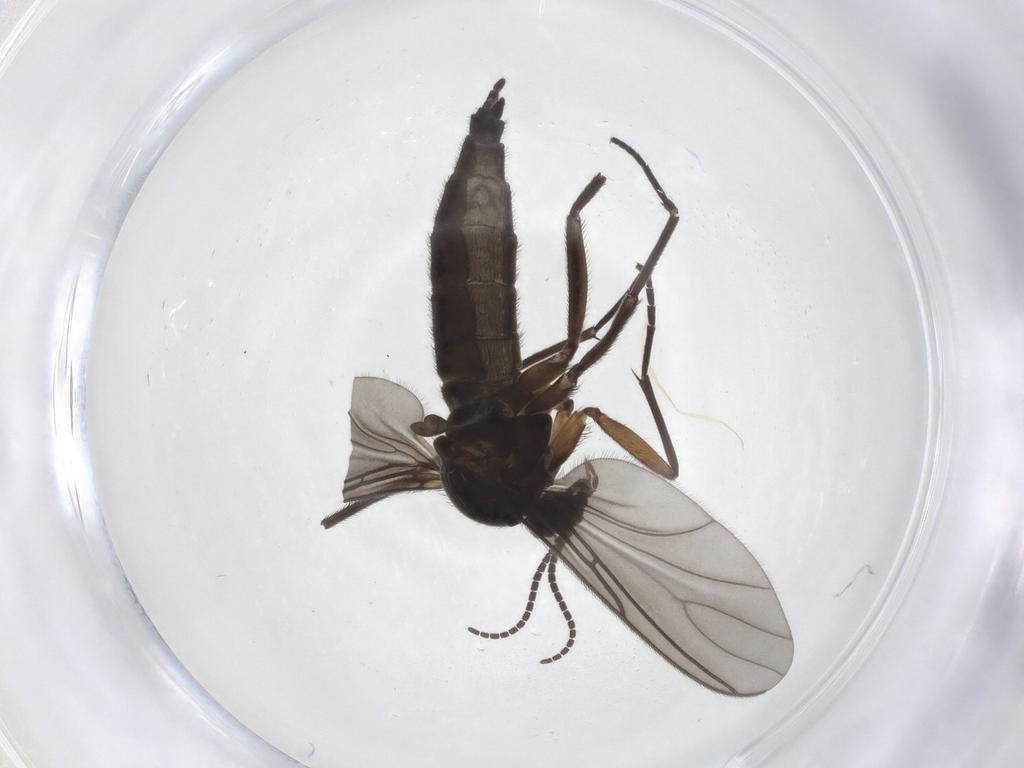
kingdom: Animalia
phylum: Arthropoda
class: Insecta
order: Diptera
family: Sciaridae
